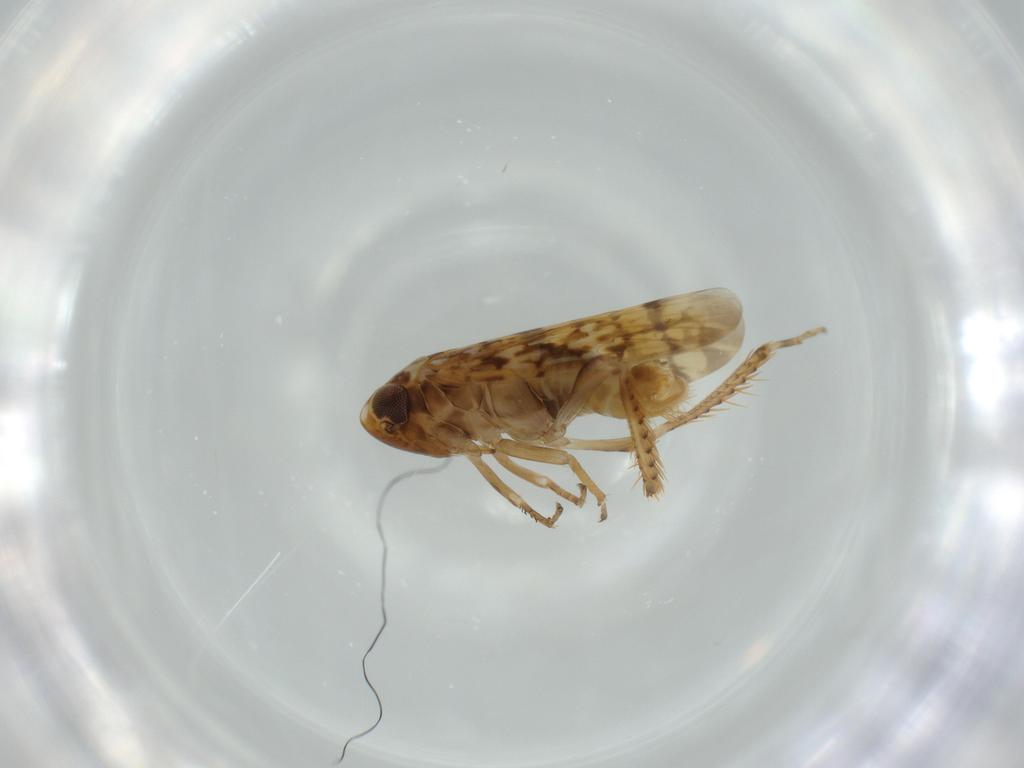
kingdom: Animalia
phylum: Arthropoda
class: Insecta
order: Hemiptera
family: Cicadellidae
